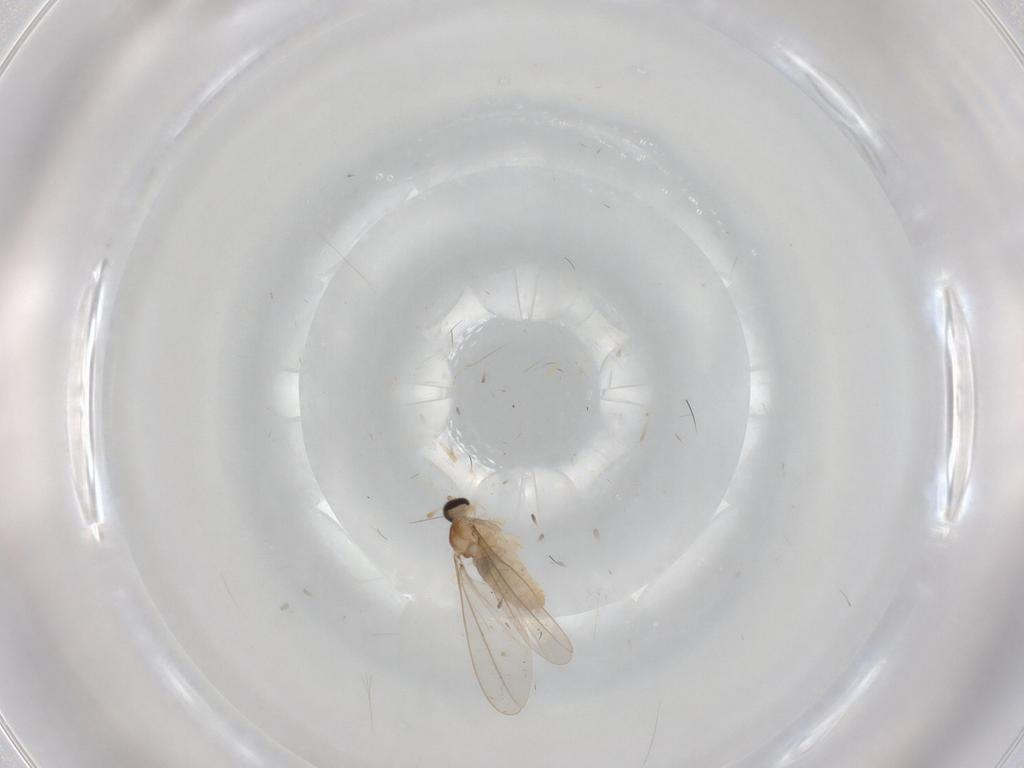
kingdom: Animalia
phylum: Arthropoda
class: Insecta
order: Diptera
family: Cecidomyiidae
